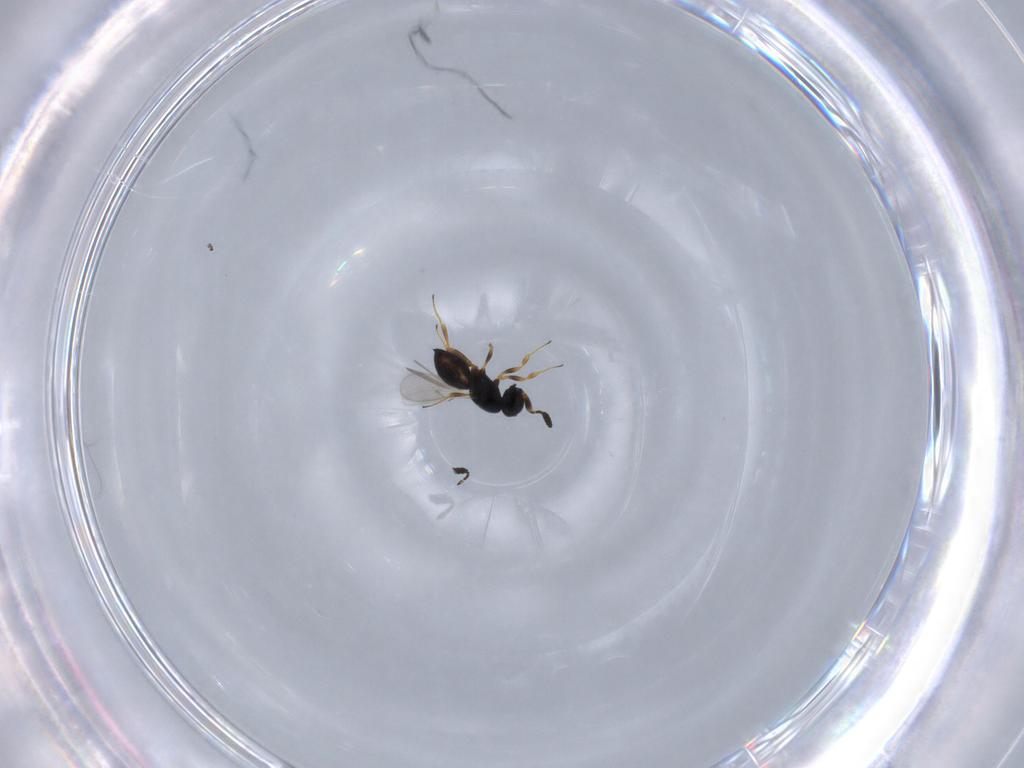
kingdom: Animalia
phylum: Arthropoda
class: Insecta
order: Hymenoptera
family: Scelionidae
